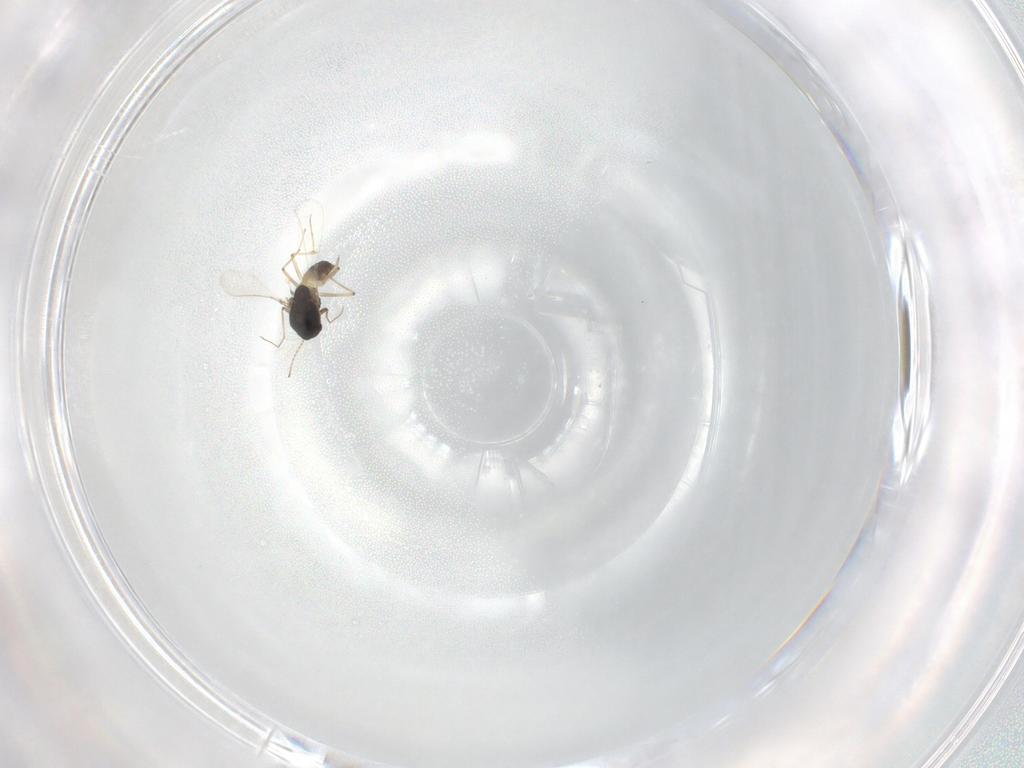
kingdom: Animalia
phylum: Arthropoda
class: Insecta
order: Diptera
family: Chironomidae
